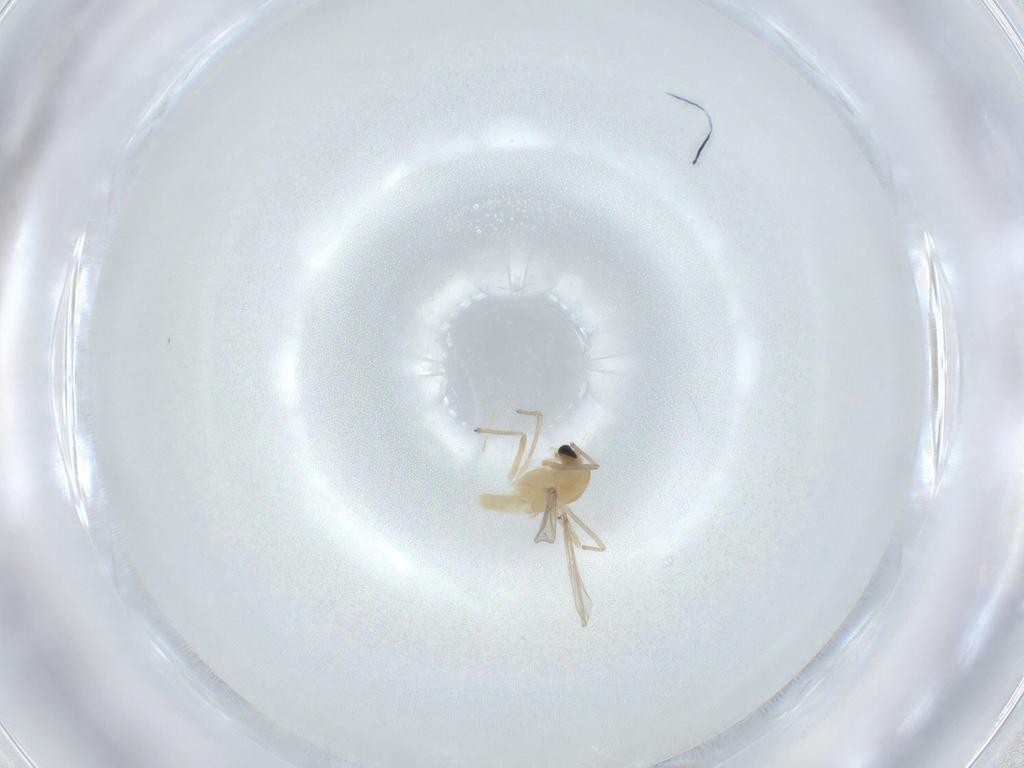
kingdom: Animalia
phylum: Arthropoda
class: Insecta
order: Diptera
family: Chironomidae
